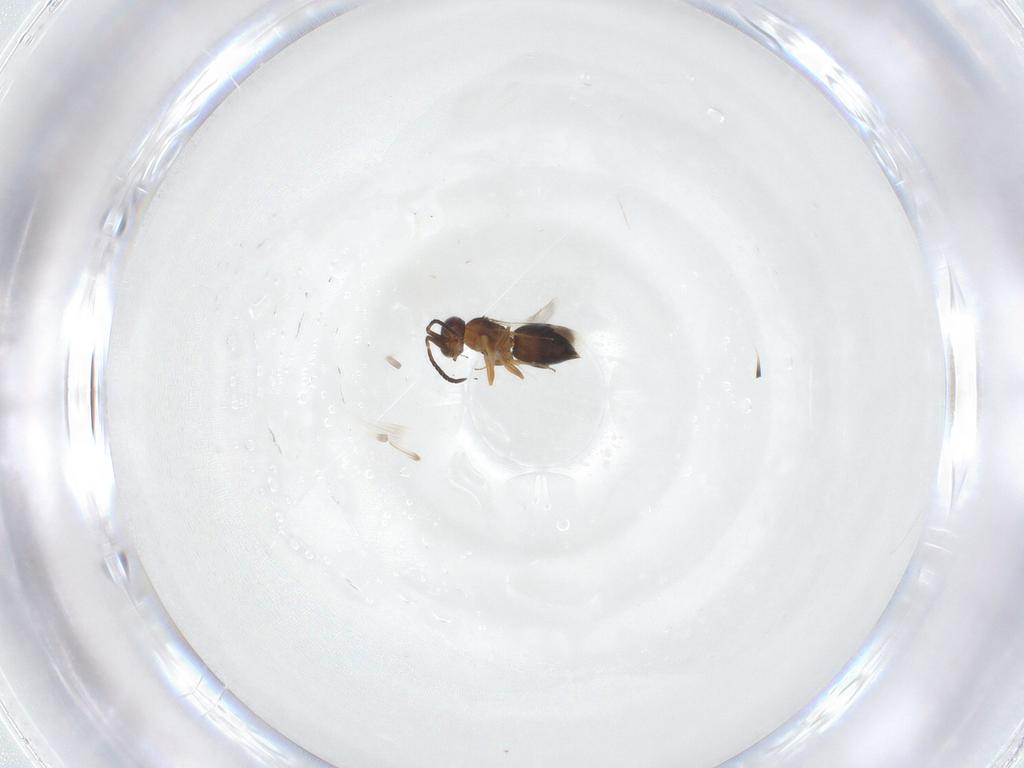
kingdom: Animalia
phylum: Arthropoda
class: Insecta
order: Hymenoptera
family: Mymaridae
